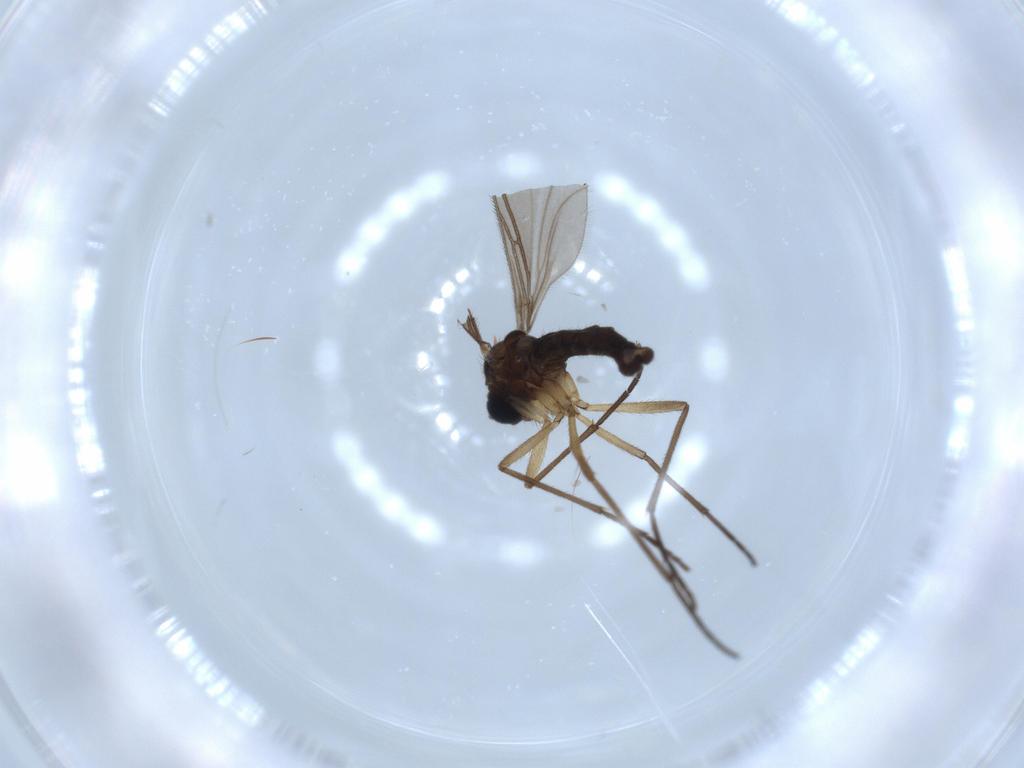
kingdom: Animalia
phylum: Arthropoda
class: Insecta
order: Diptera
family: Sciaridae
